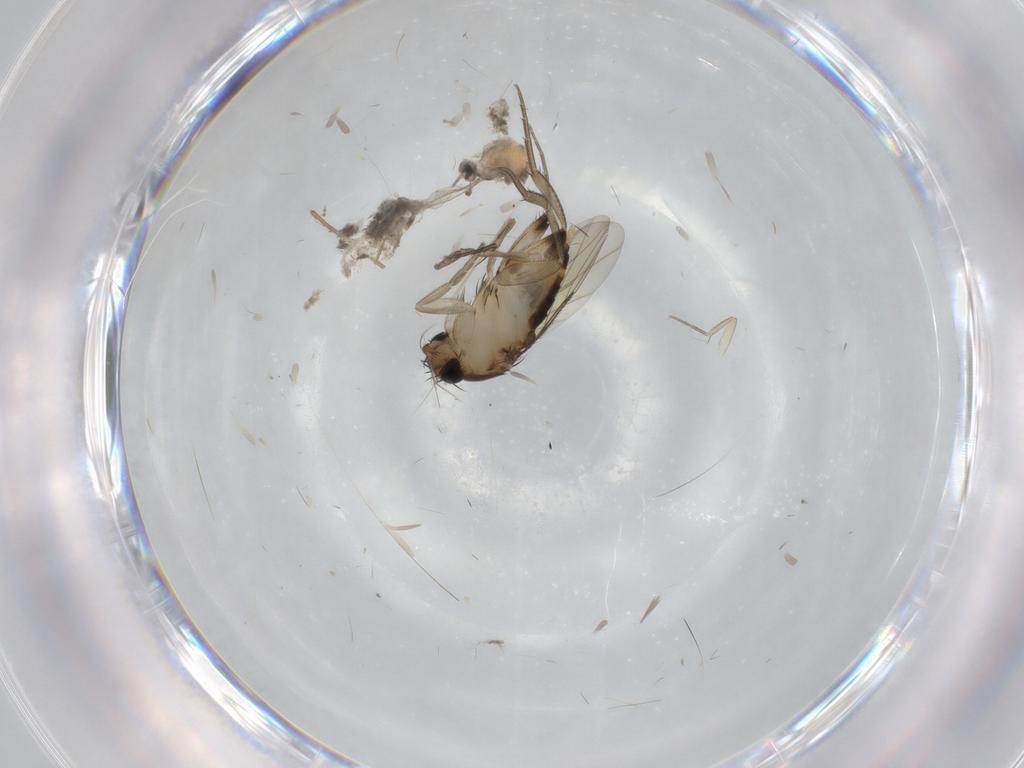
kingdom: Animalia
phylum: Arthropoda
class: Insecta
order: Diptera
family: Phoridae
